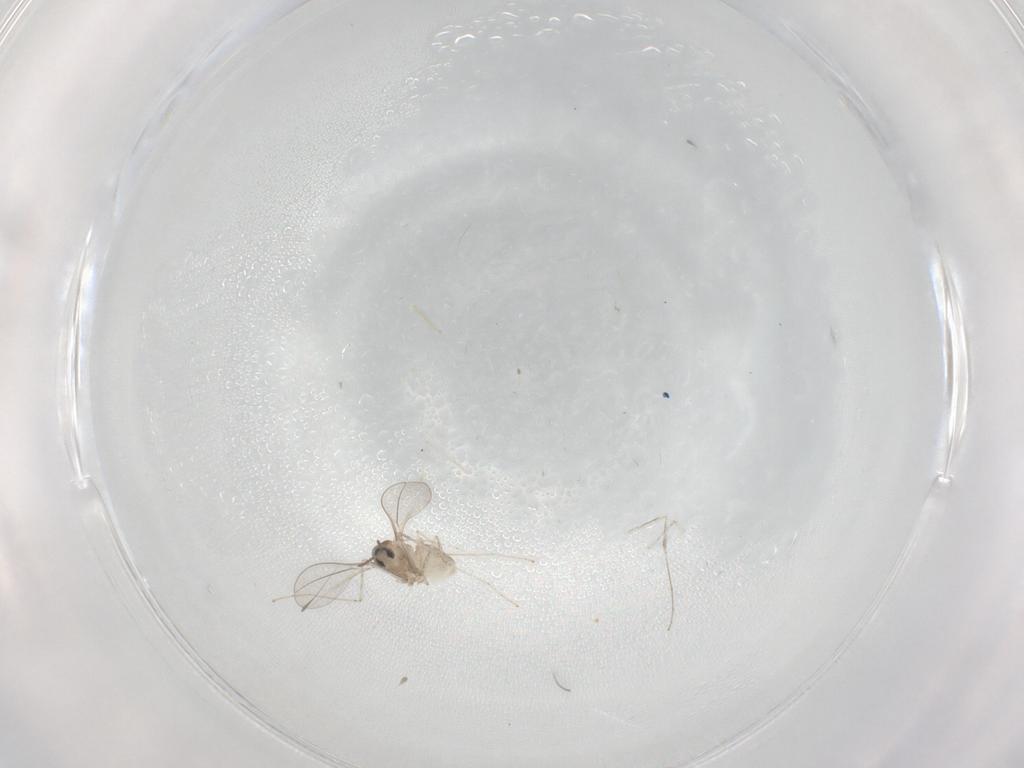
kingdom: Animalia
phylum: Arthropoda
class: Insecta
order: Diptera
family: Cecidomyiidae
